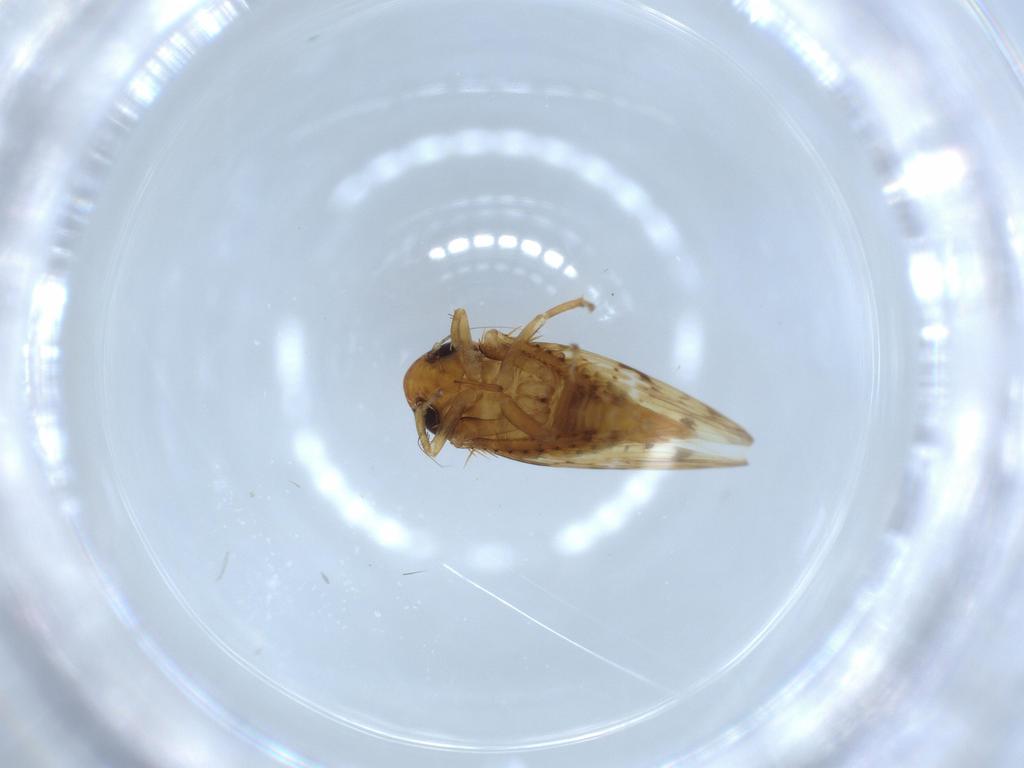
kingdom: Animalia
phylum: Arthropoda
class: Insecta
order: Hemiptera
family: Cicadellidae
